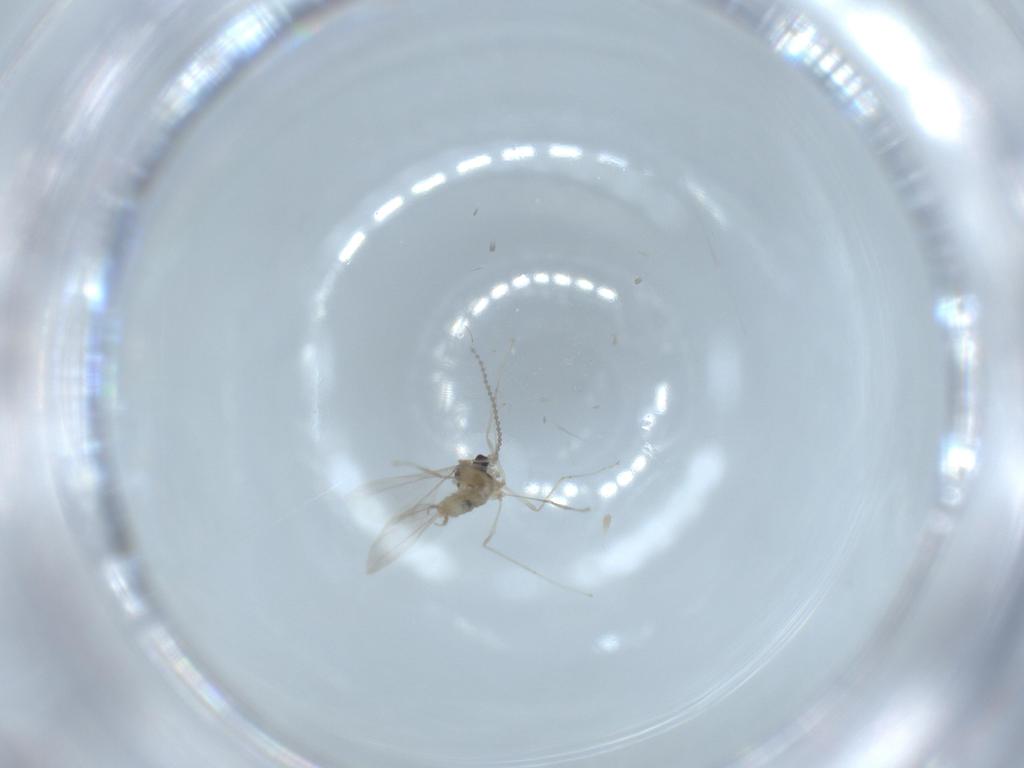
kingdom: Animalia
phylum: Arthropoda
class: Insecta
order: Diptera
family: Cecidomyiidae
